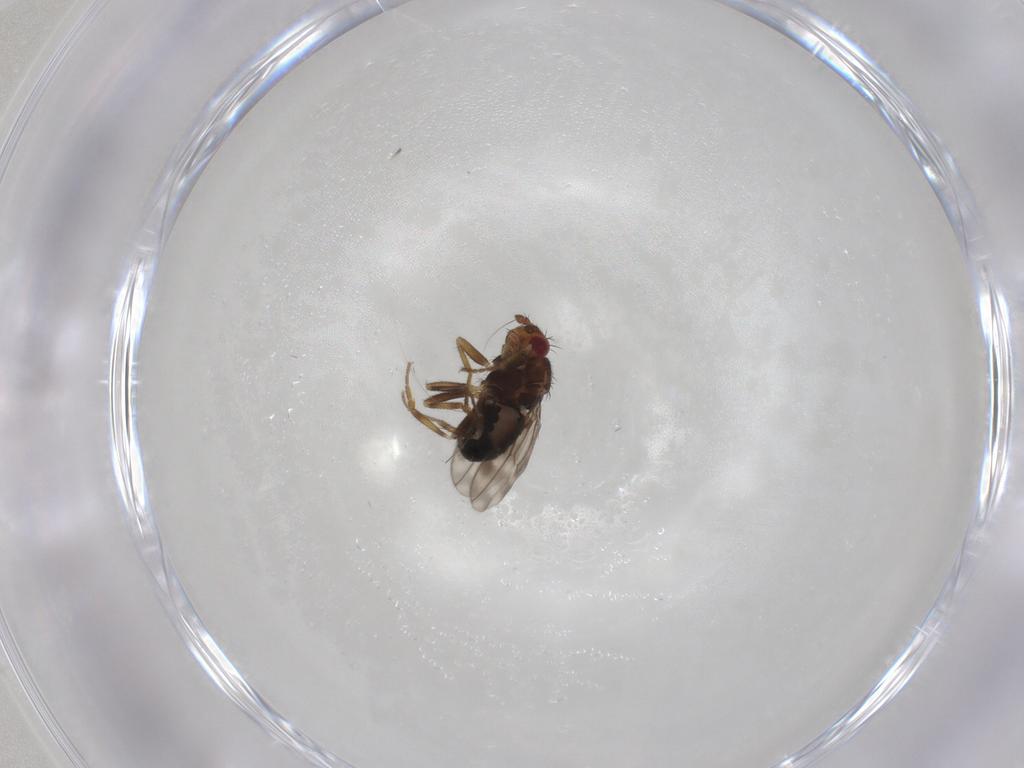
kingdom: Animalia
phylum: Arthropoda
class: Insecta
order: Diptera
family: Sphaeroceridae
